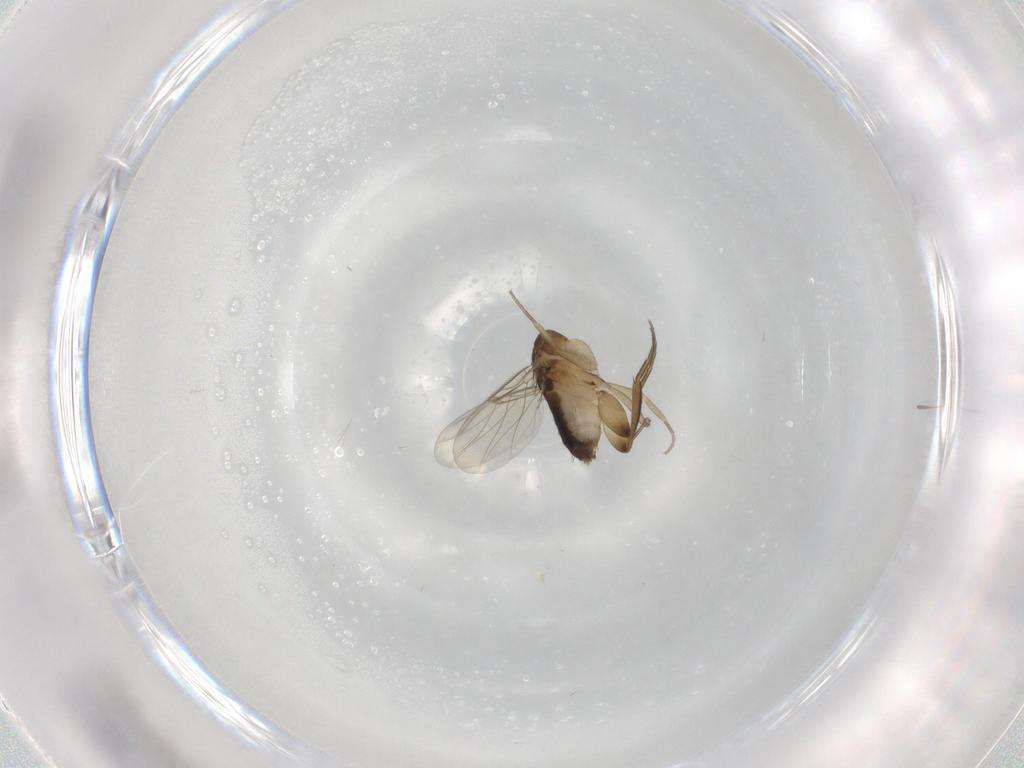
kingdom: Animalia
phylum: Arthropoda
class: Insecta
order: Diptera
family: Phoridae
